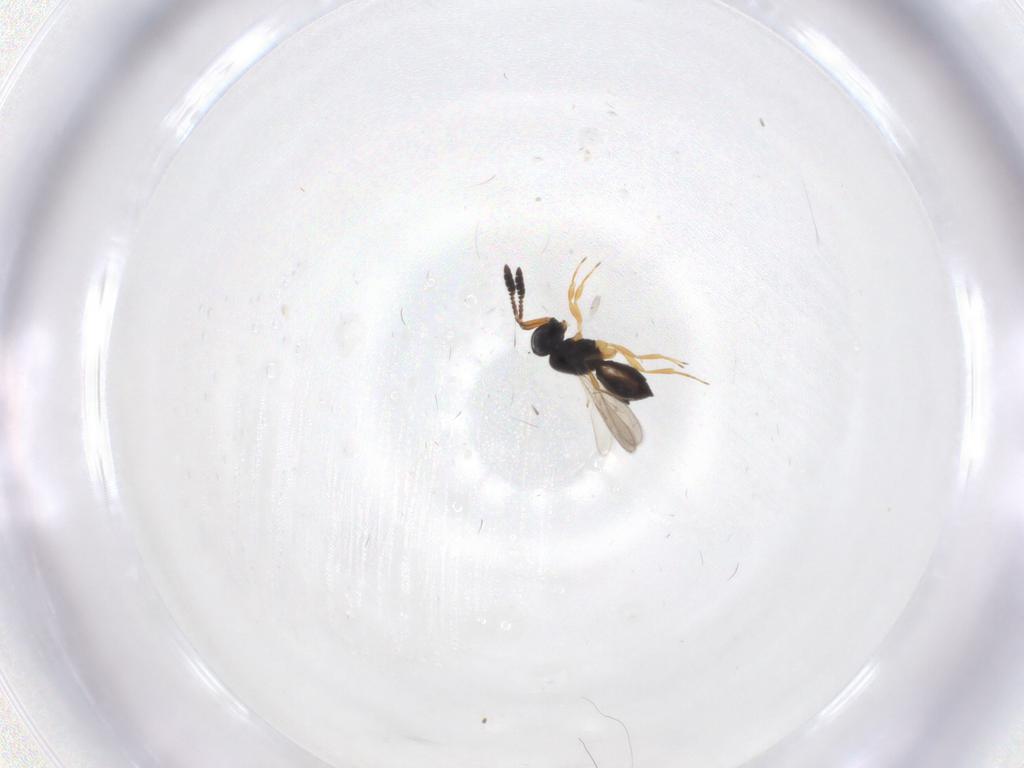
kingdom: Animalia
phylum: Arthropoda
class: Insecta
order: Hymenoptera
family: Scelionidae
